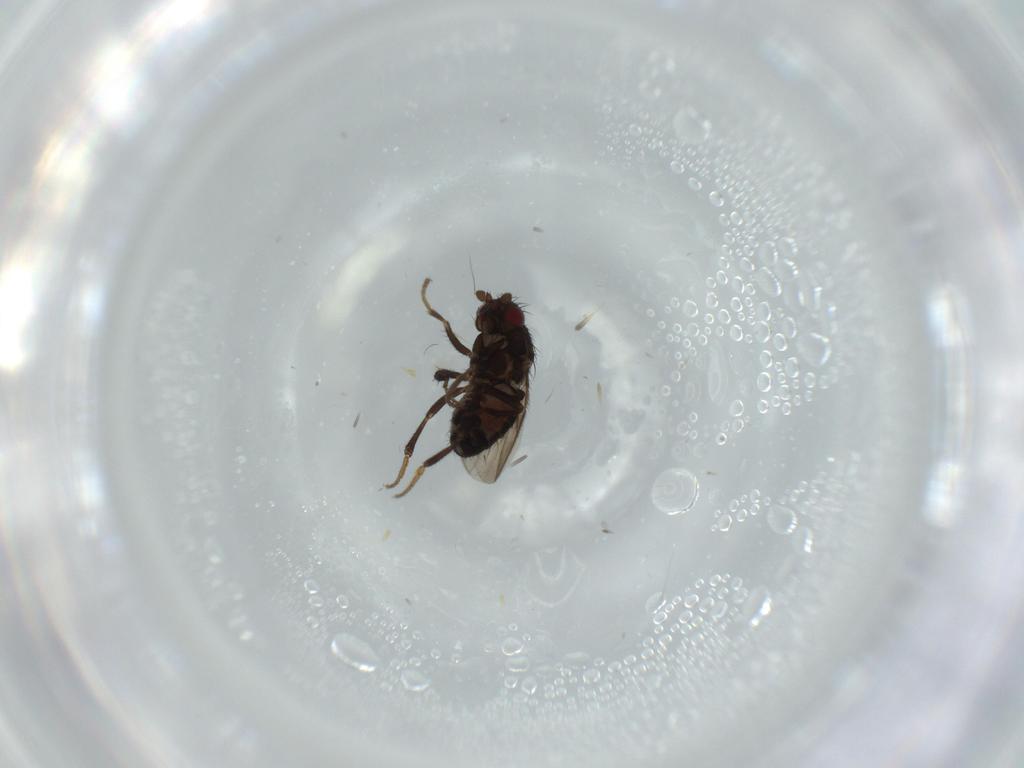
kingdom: Animalia
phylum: Arthropoda
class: Insecta
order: Diptera
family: Sphaeroceridae
